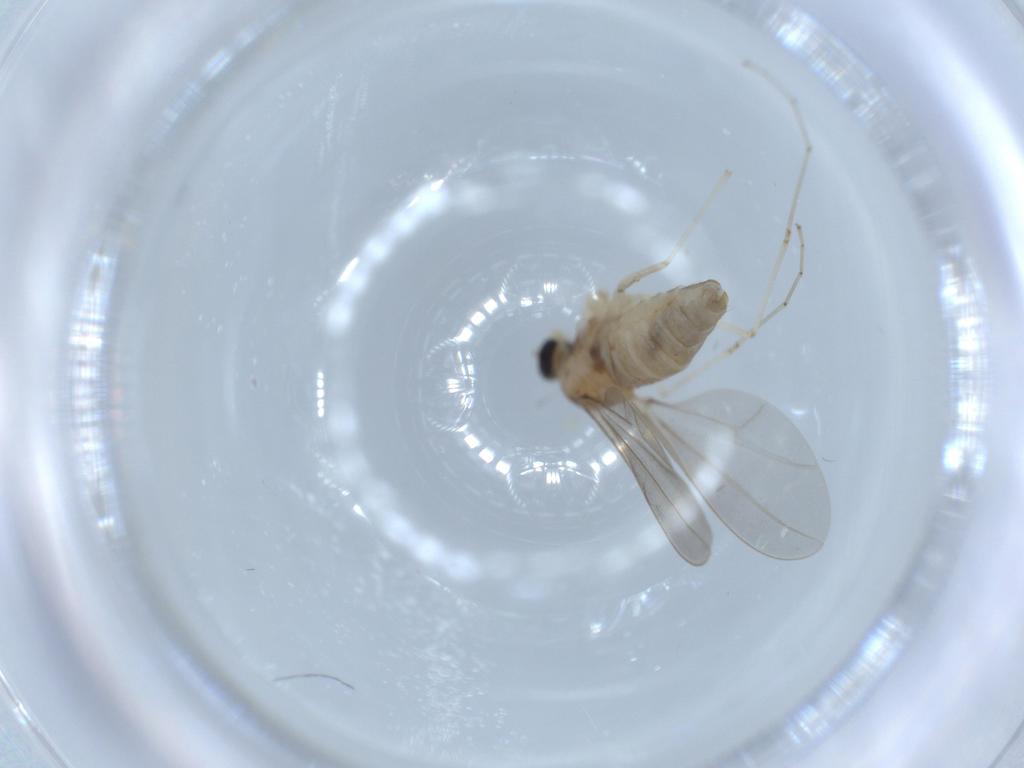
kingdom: Animalia
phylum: Arthropoda
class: Insecta
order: Diptera
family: Cecidomyiidae
